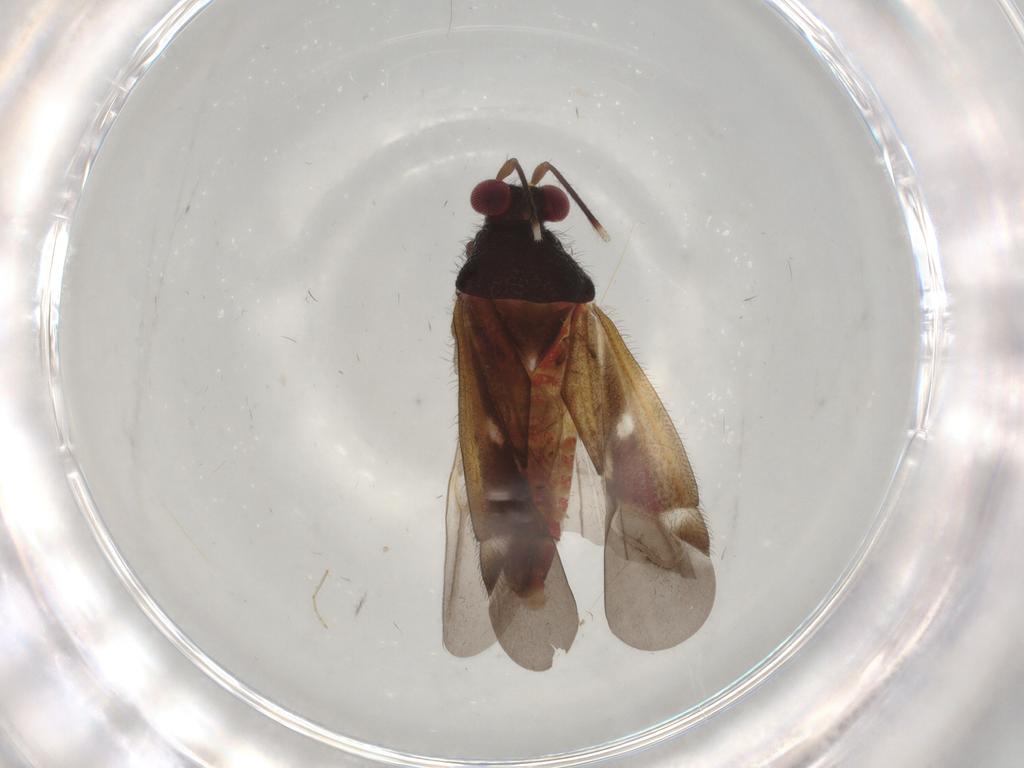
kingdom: Animalia
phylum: Arthropoda
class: Insecta
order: Hemiptera
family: Miridae
